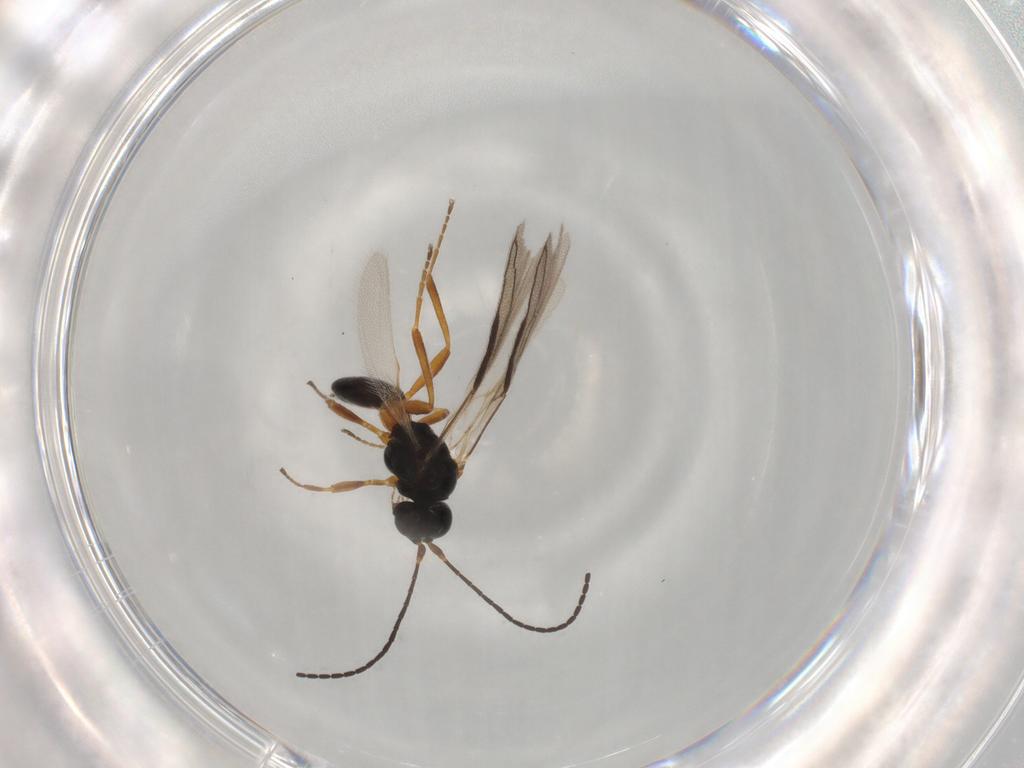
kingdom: Animalia
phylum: Arthropoda
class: Insecta
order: Hymenoptera
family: Braconidae
